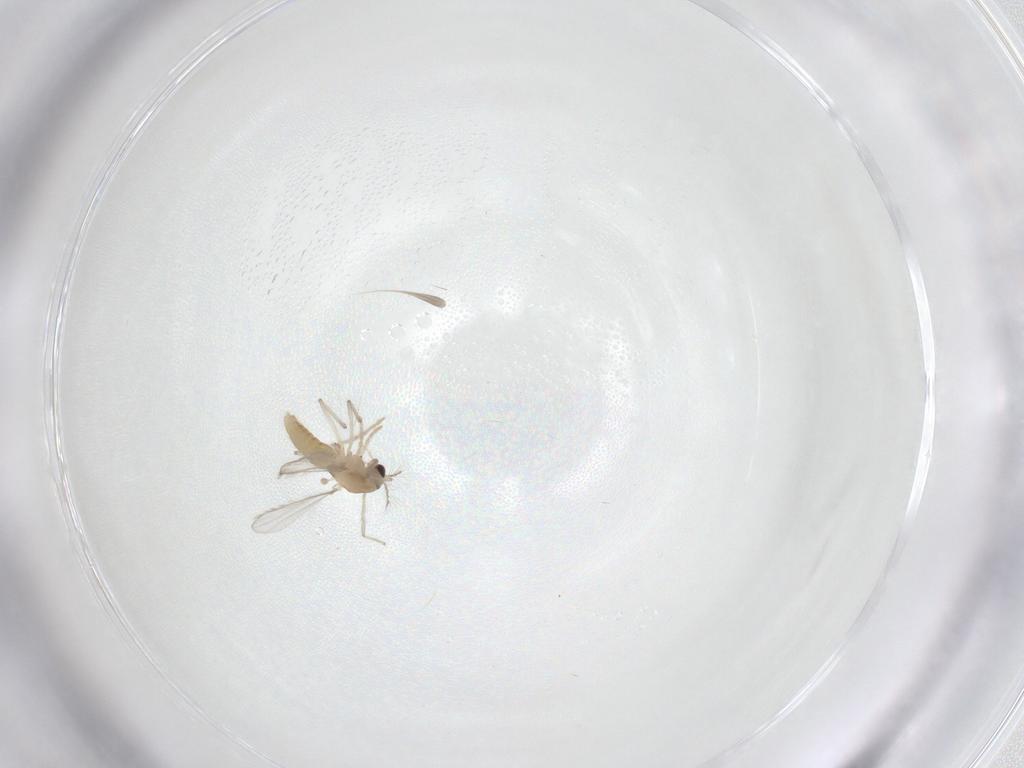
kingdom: Animalia
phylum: Arthropoda
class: Insecta
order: Diptera
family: Chironomidae
